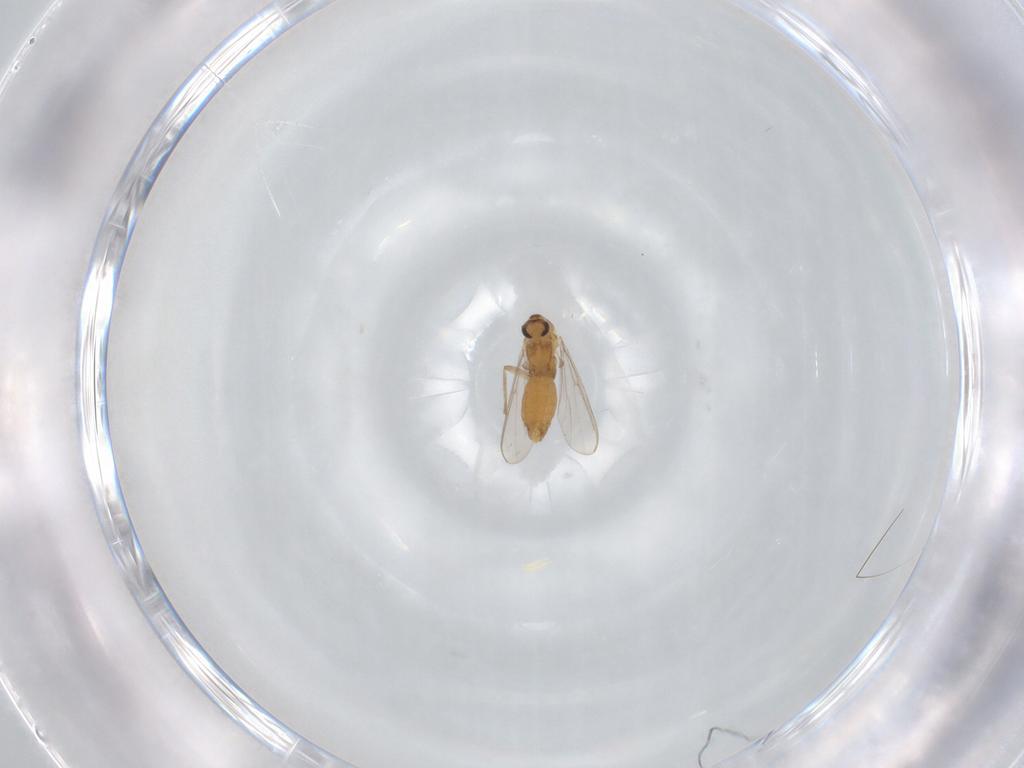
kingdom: Animalia
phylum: Arthropoda
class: Insecta
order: Diptera
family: Chironomidae
